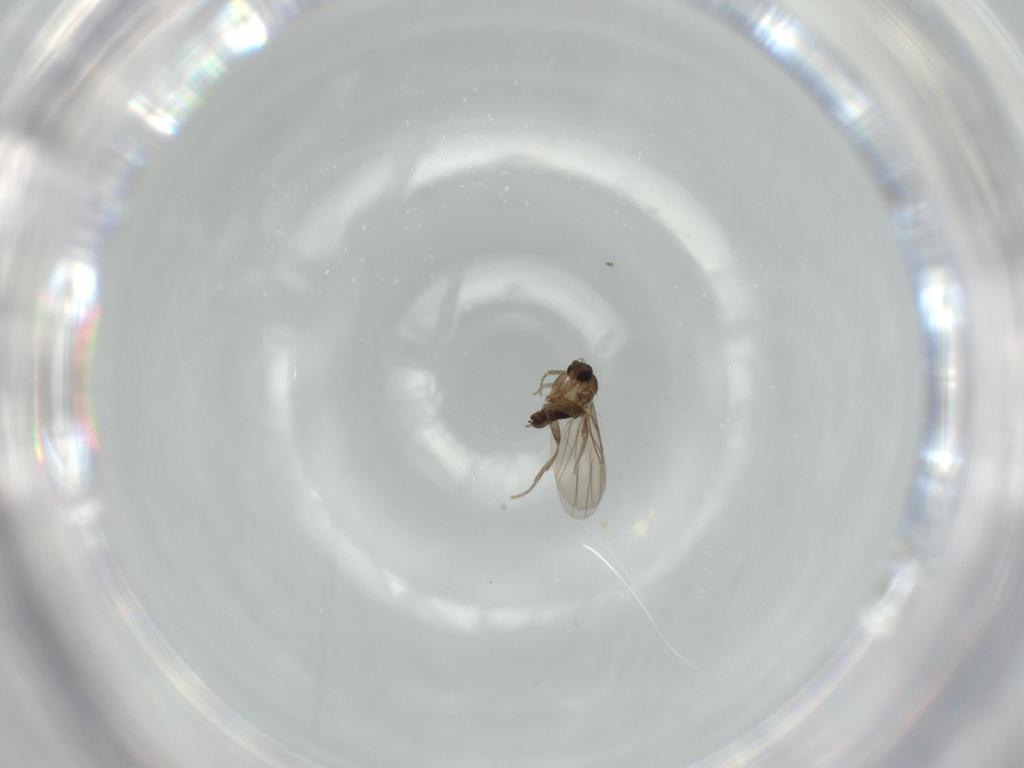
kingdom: Animalia
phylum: Arthropoda
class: Insecta
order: Diptera
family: Phoridae
